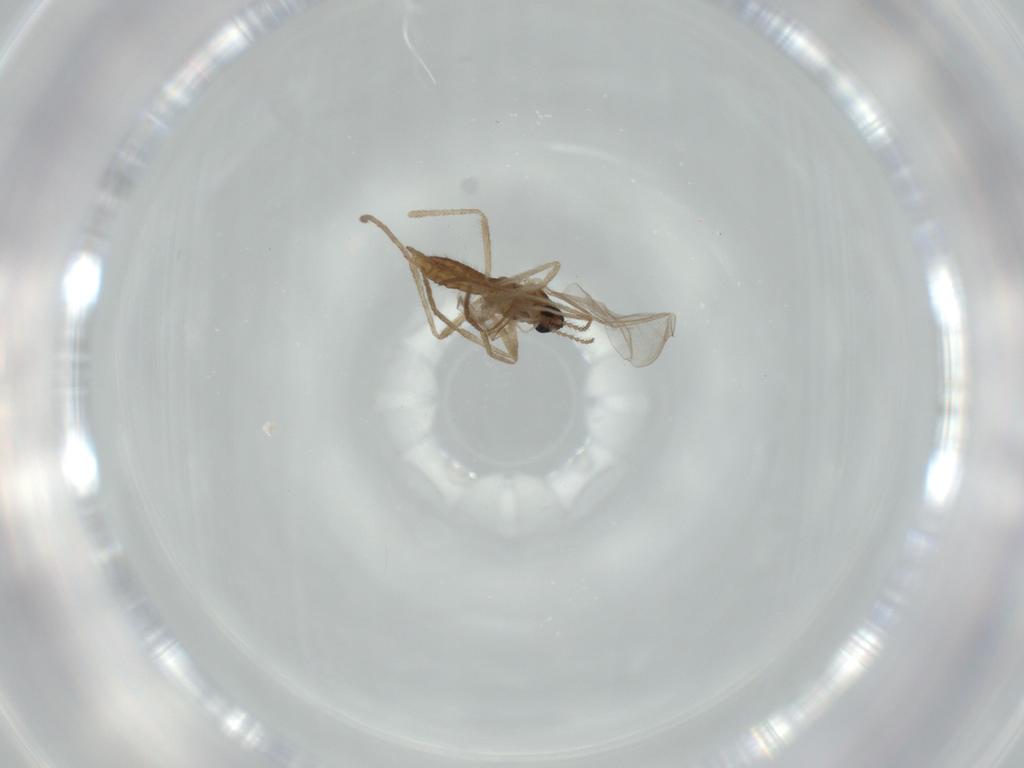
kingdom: Animalia
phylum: Arthropoda
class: Insecta
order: Diptera
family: Cecidomyiidae
